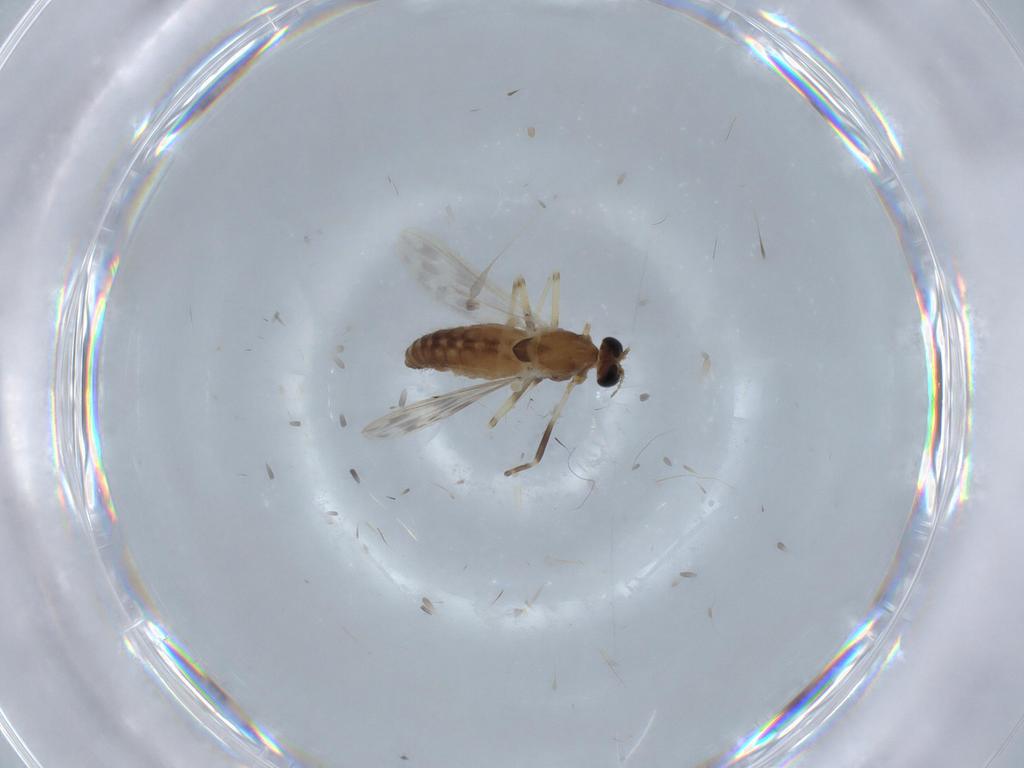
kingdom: Animalia
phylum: Arthropoda
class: Insecta
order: Diptera
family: Chironomidae
